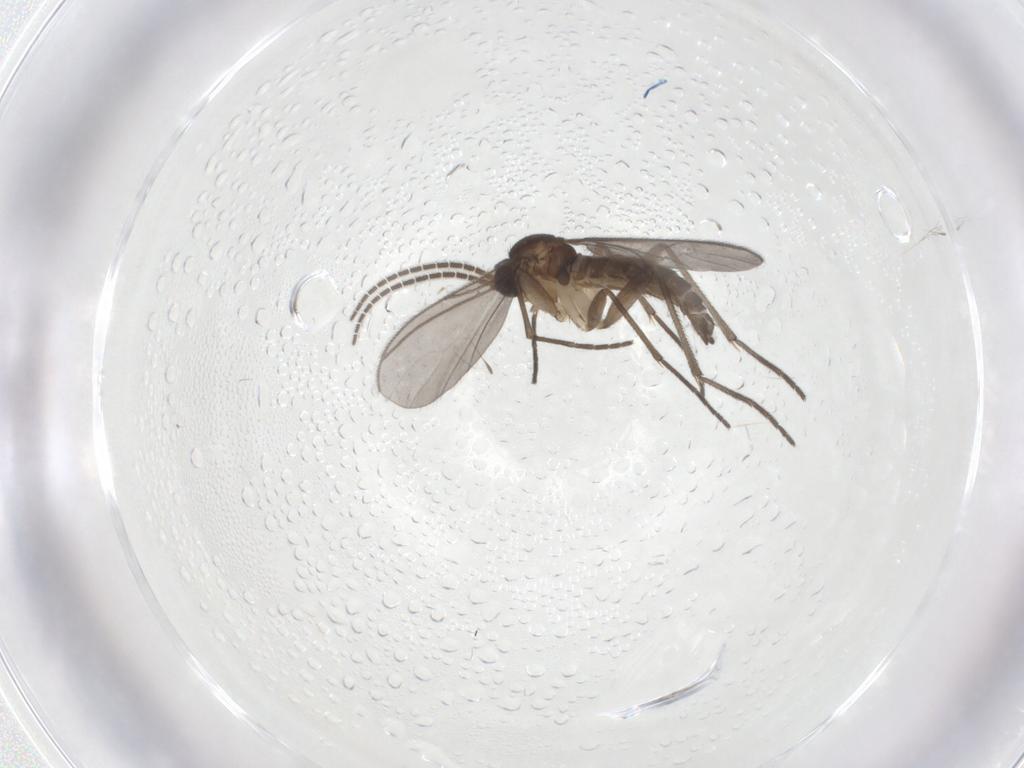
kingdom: Animalia
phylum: Arthropoda
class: Insecta
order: Diptera
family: Sciaridae
